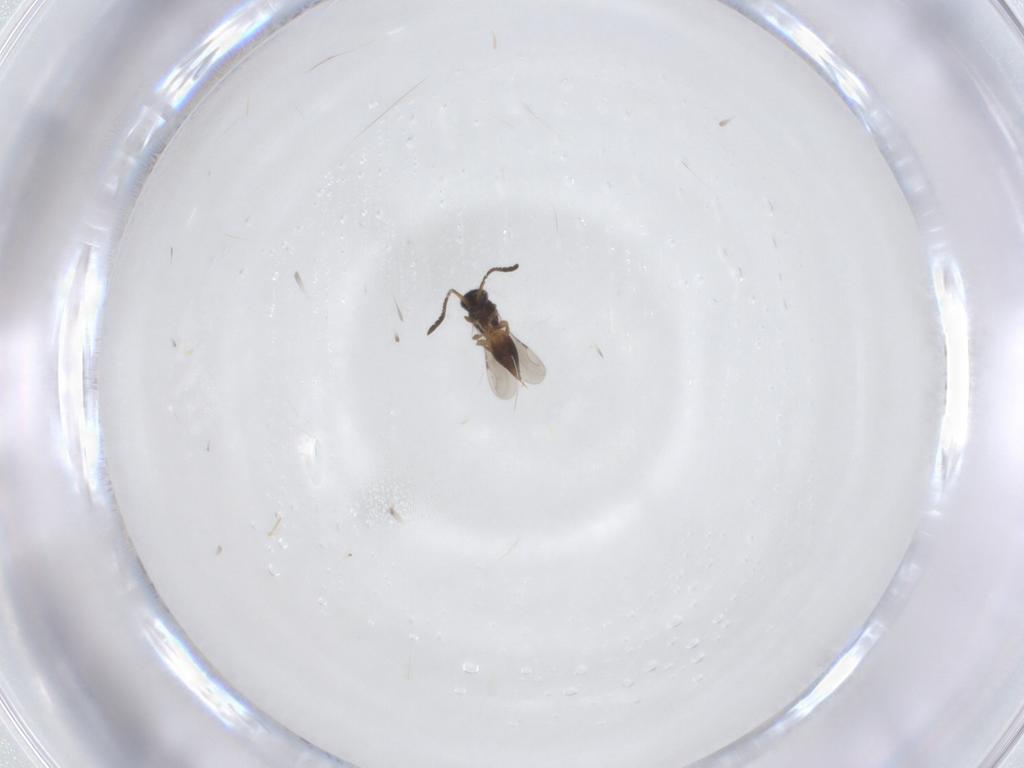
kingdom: Animalia
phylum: Arthropoda
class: Insecta
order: Hymenoptera
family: Ceraphronidae
